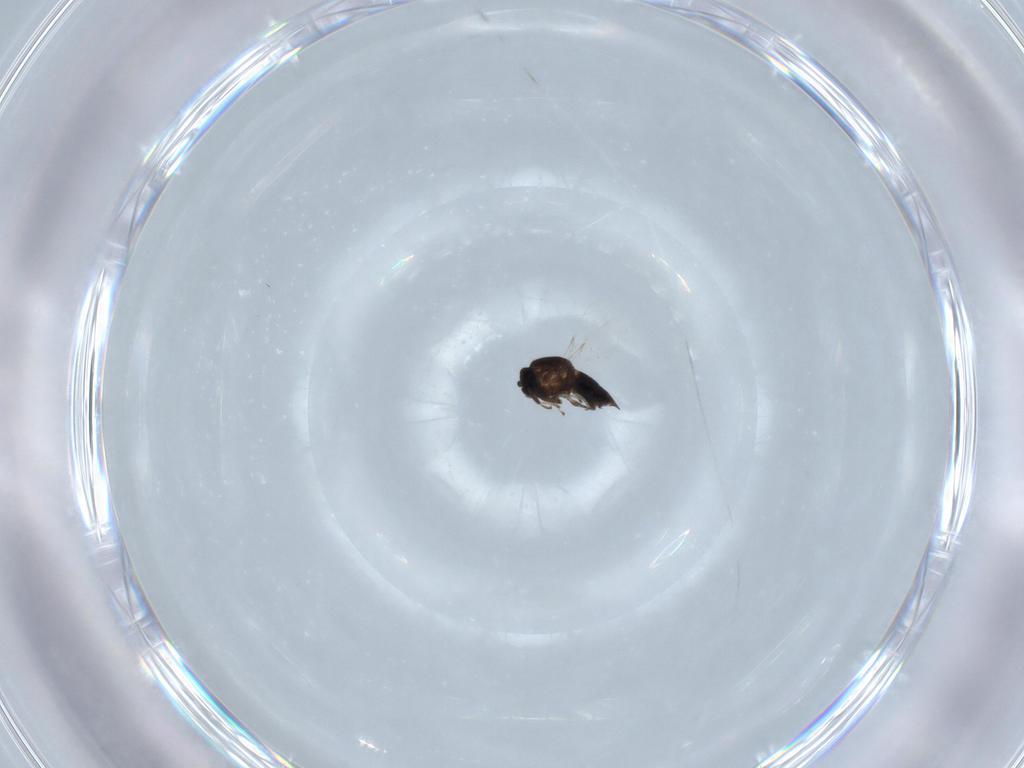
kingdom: Animalia
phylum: Arthropoda
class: Insecta
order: Diptera
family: Scatopsidae
